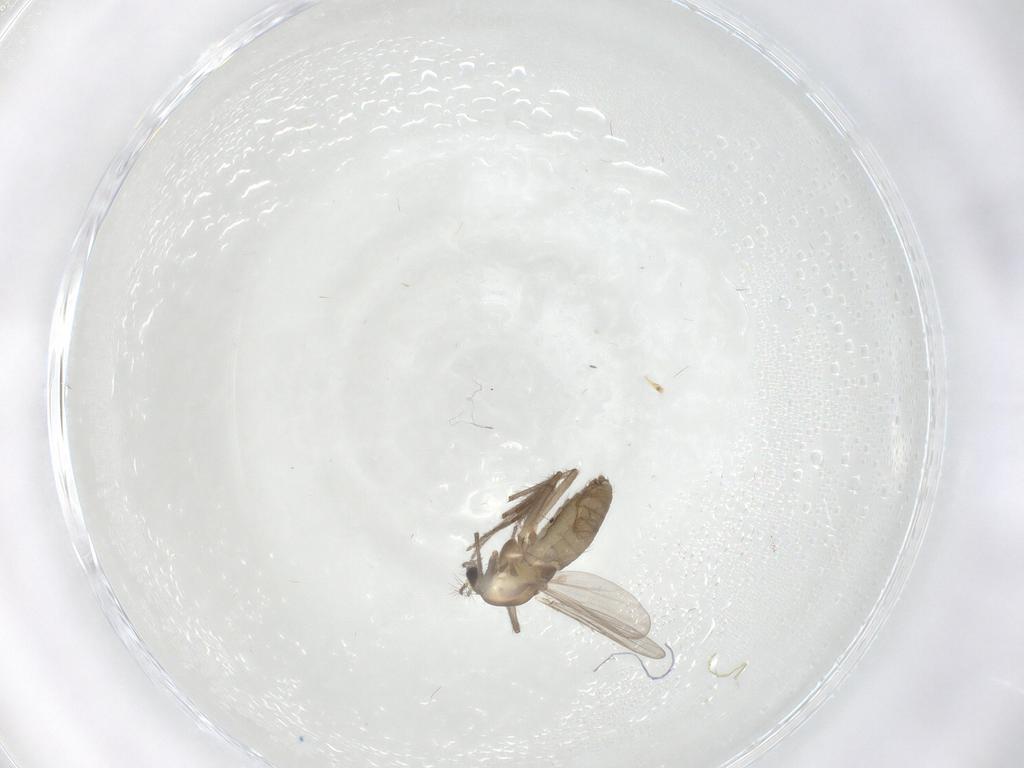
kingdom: Animalia
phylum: Arthropoda
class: Insecta
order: Diptera
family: Chironomidae
